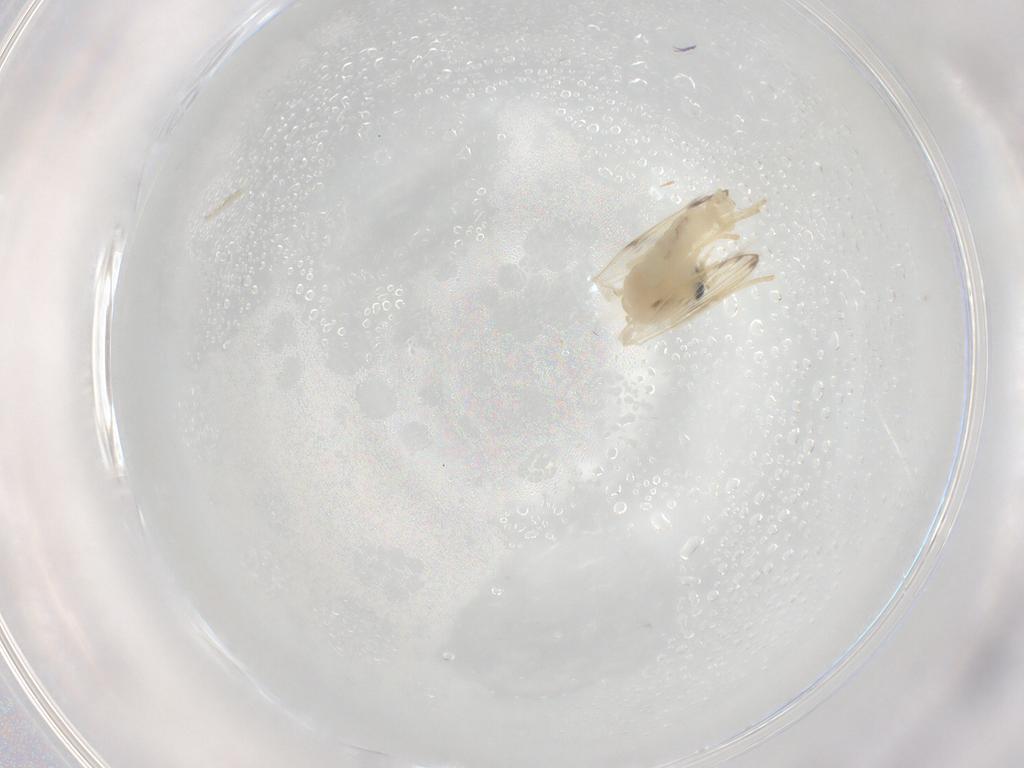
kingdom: Animalia
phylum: Arthropoda
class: Insecta
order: Diptera
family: Psychodidae
